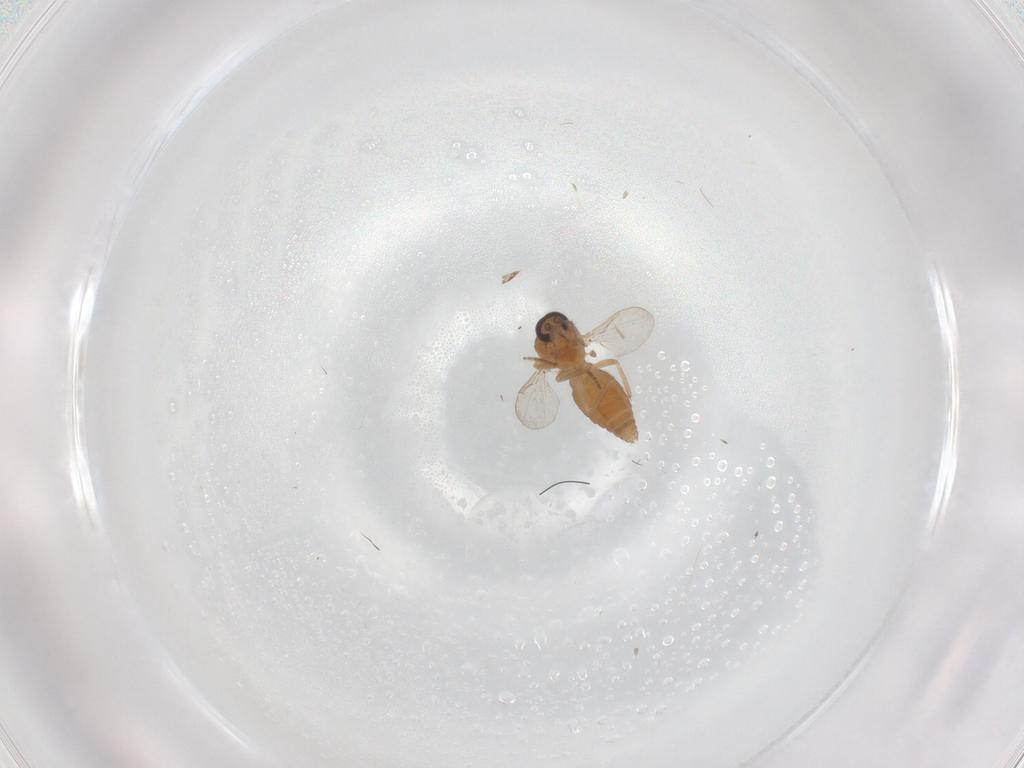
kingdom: Animalia
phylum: Arthropoda
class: Insecta
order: Diptera
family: Ceratopogonidae
